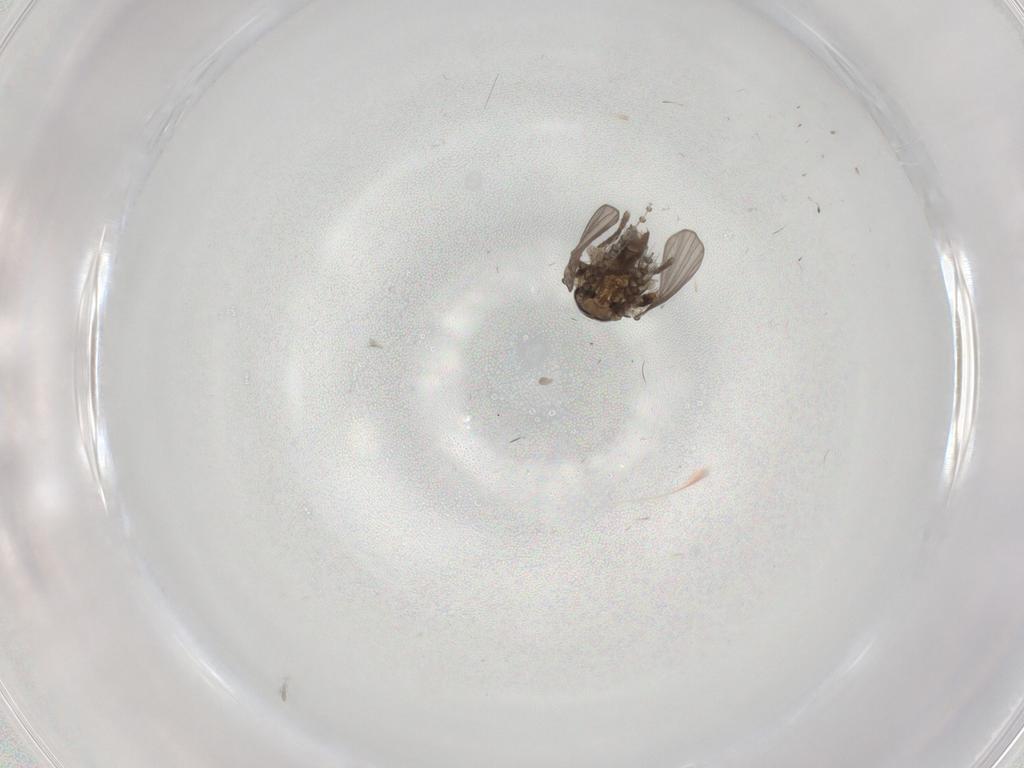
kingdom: Animalia
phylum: Arthropoda
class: Insecta
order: Diptera
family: Psychodidae
